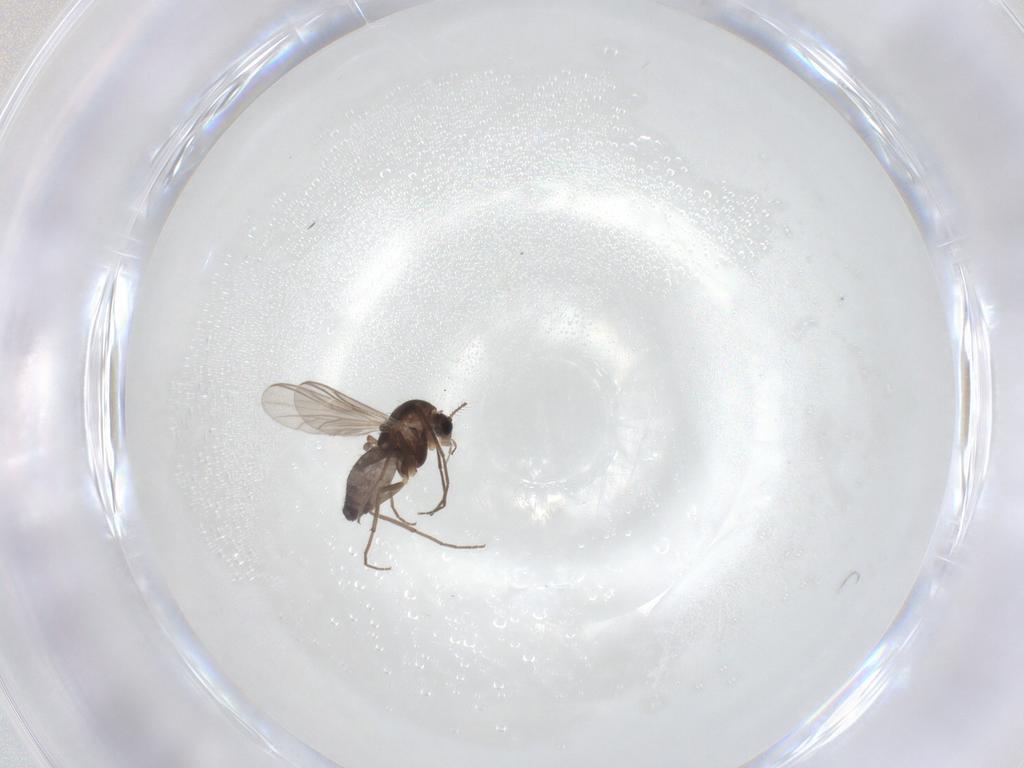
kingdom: Animalia
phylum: Arthropoda
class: Insecta
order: Diptera
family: Chironomidae
